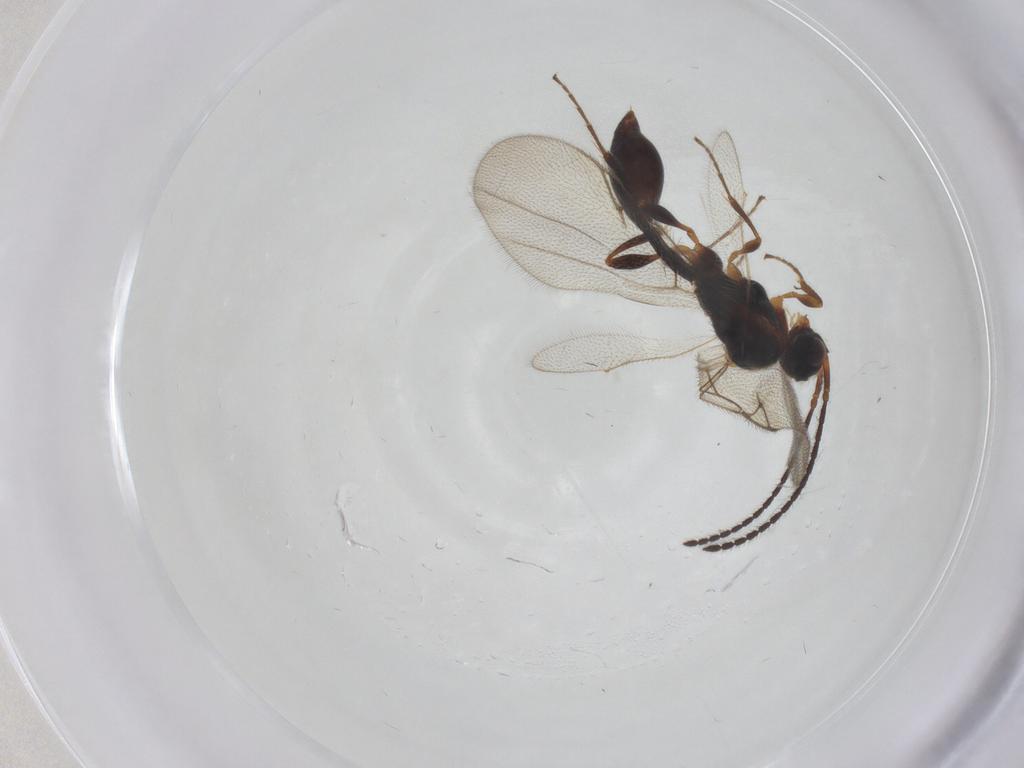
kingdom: Animalia
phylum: Arthropoda
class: Insecta
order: Hymenoptera
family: Diapriidae
